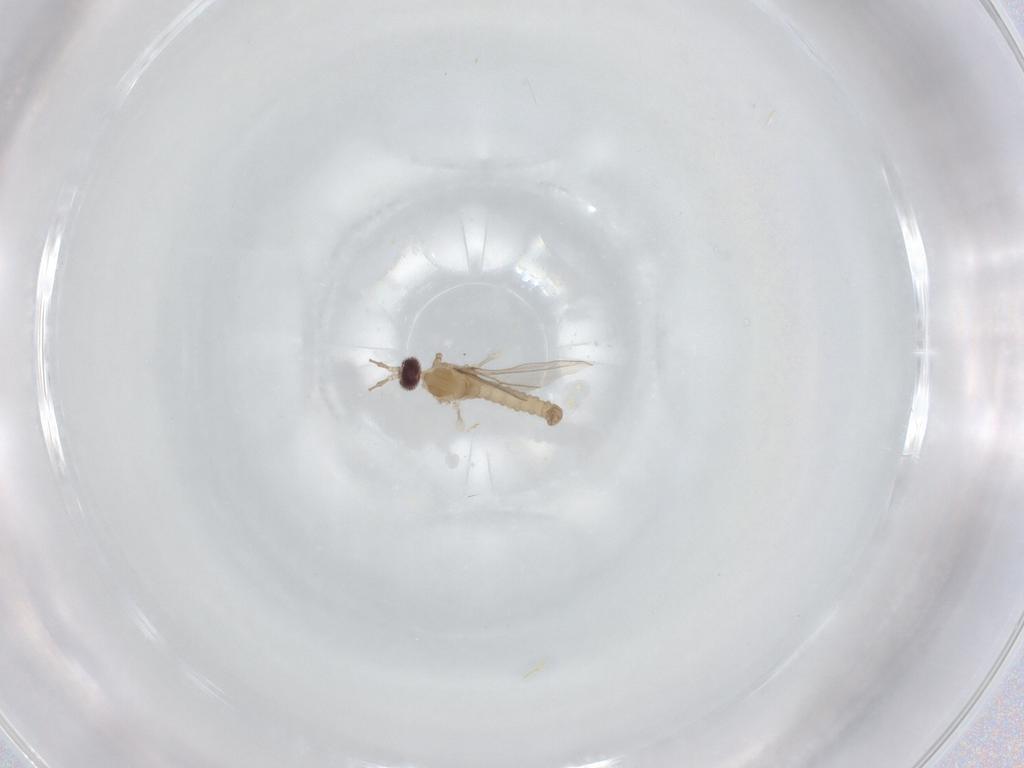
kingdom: Animalia
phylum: Arthropoda
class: Insecta
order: Diptera
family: Cecidomyiidae
